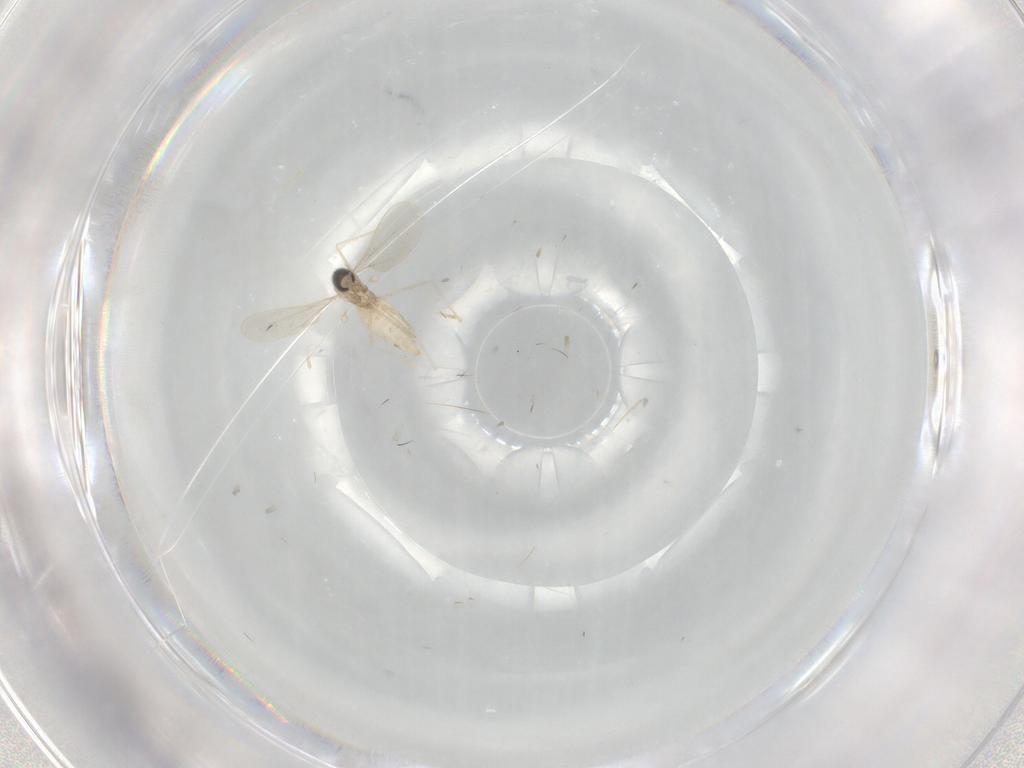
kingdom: Animalia
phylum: Arthropoda
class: Insecta
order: Diptera
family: Cecidomyiidae
